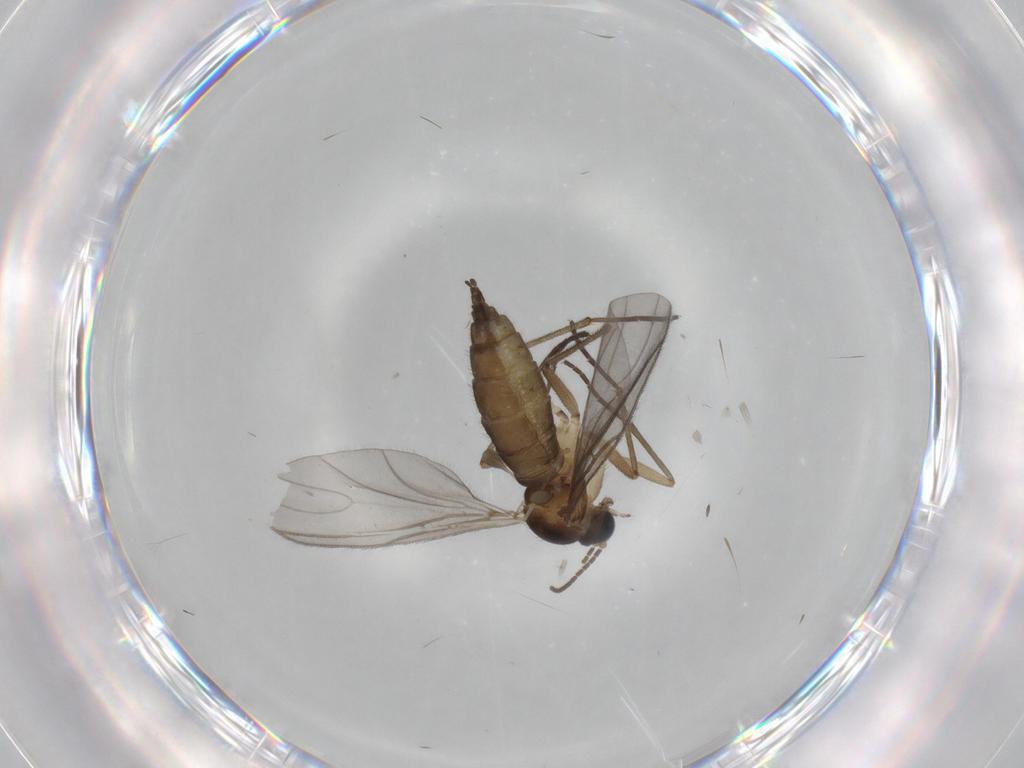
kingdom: Animalia
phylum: Arthropoda
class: Insecta
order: Diptera
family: Sciaridae
